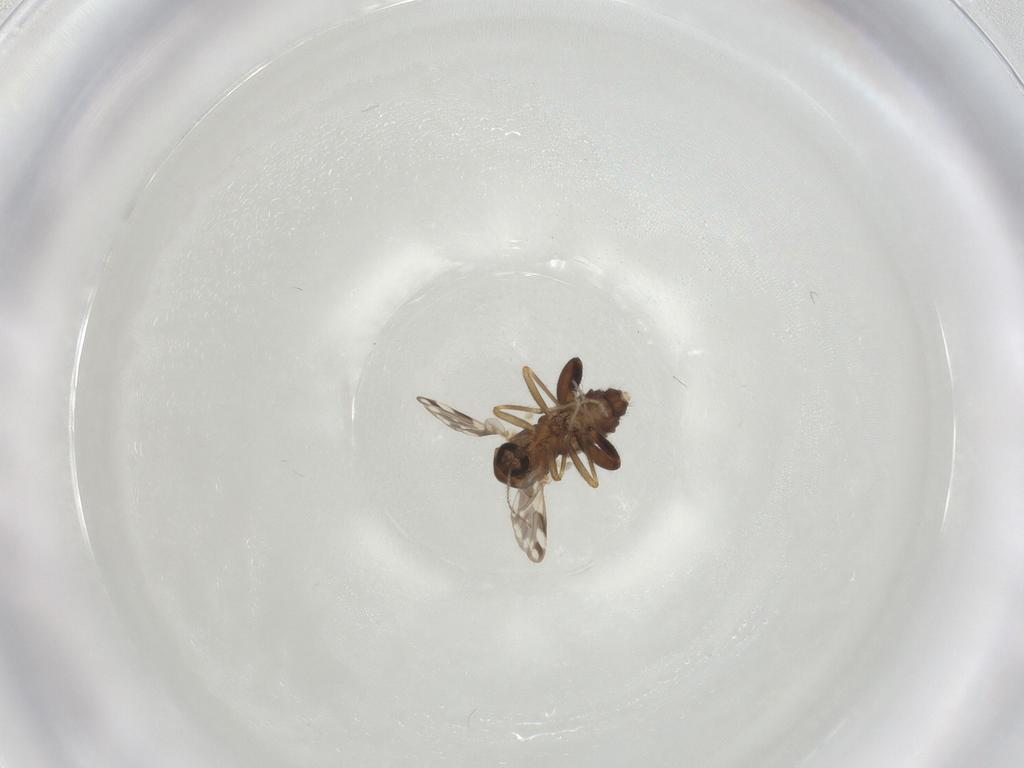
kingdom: Animalia
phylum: Arthropoda
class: Insecta
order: Diptera
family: Ceratopogonidae
